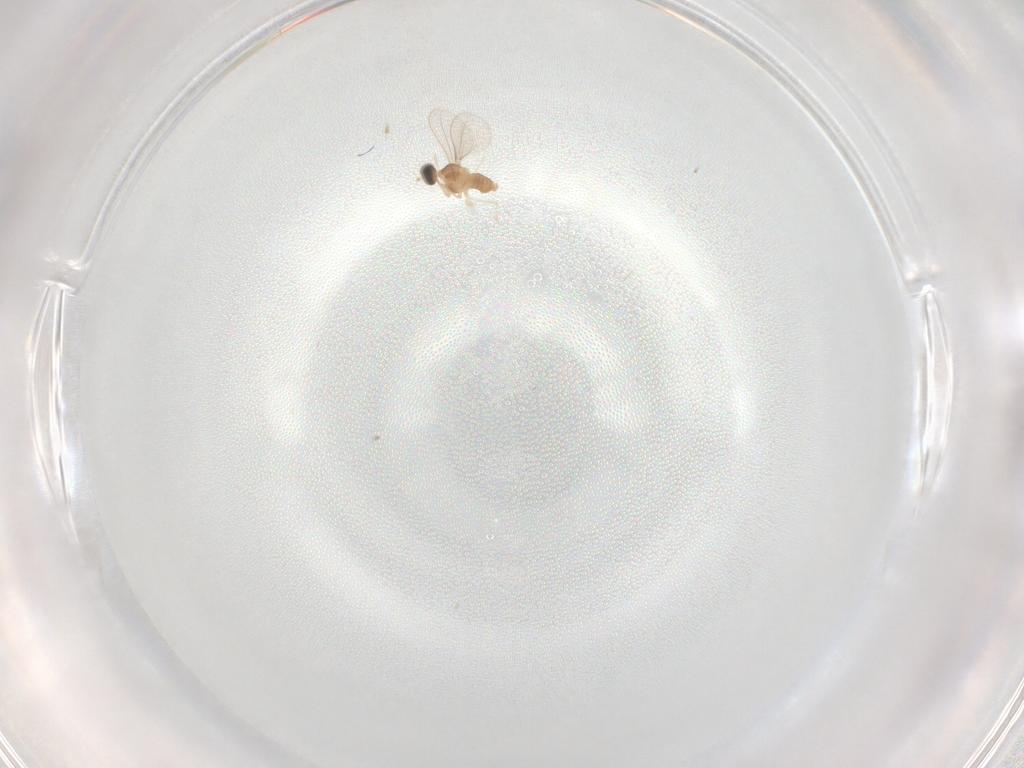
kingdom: Animalia
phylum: Arthropoda
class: Insecta
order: Diptera
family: Cecidomyiidae
